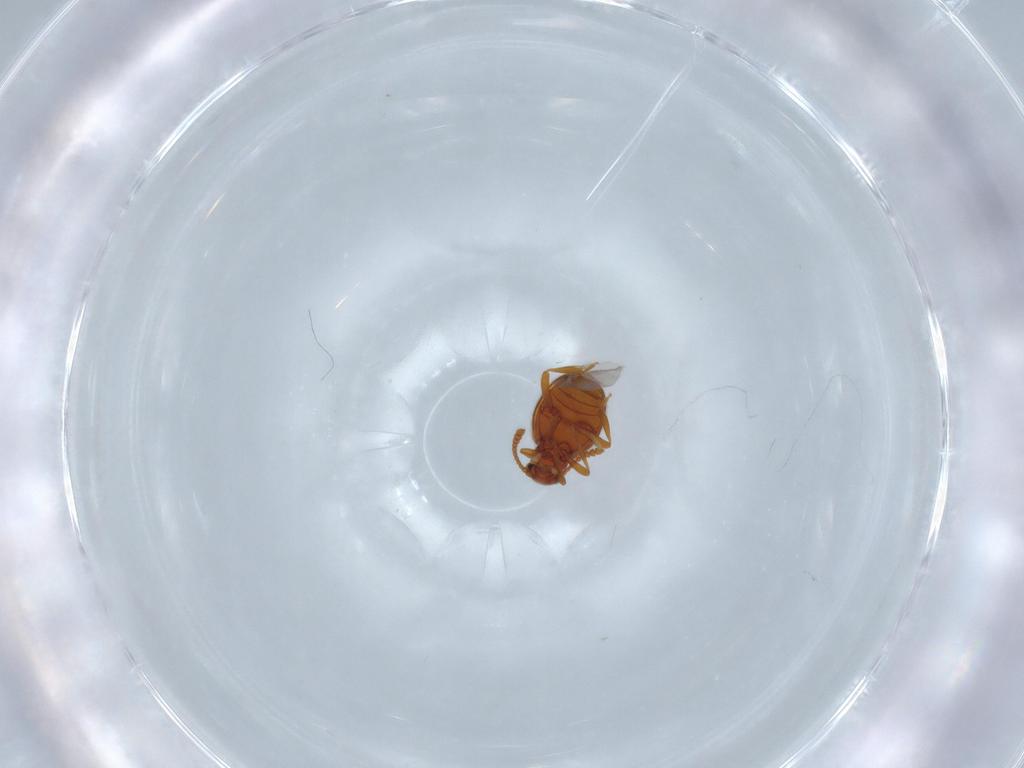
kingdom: Animalia
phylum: Arthropoda
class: Insecta
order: Coleoptera
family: Aderidae
